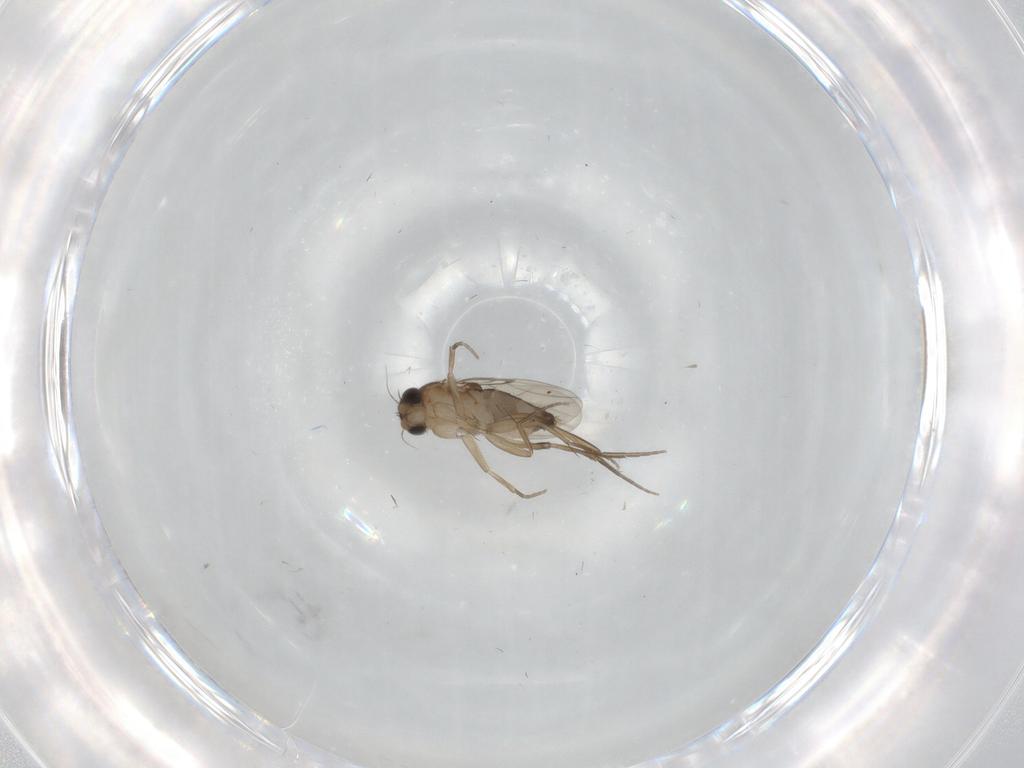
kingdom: Animalia
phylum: Arthropoda
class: Insecta
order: Diptera
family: Phoridae
